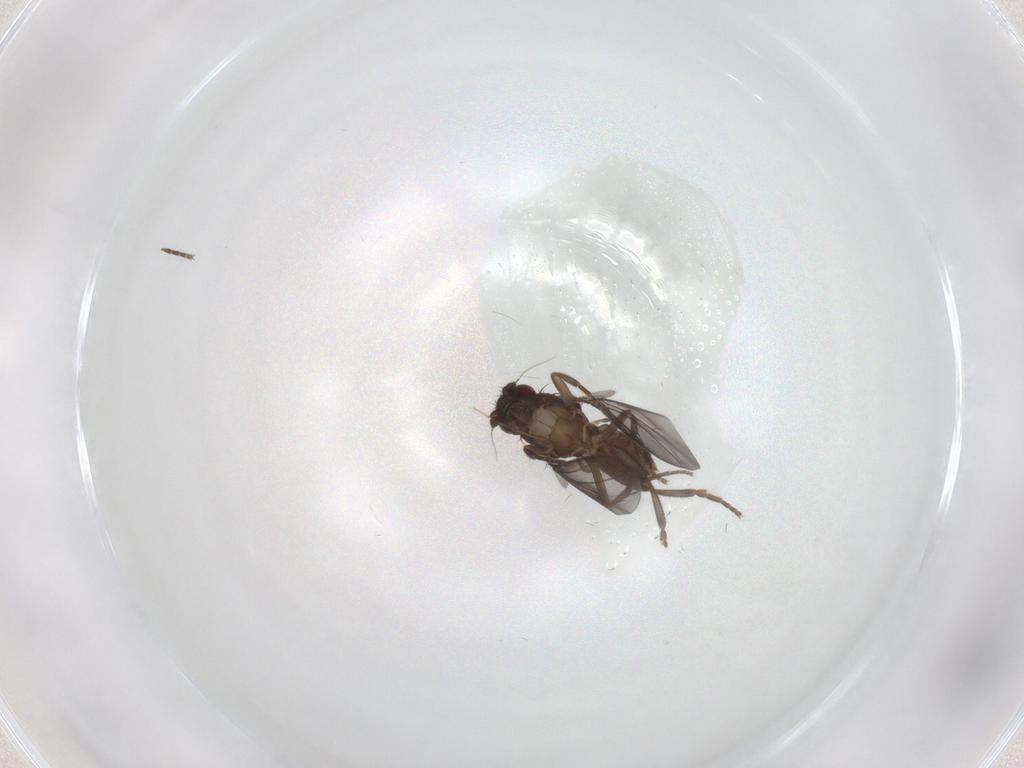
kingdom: Animalia
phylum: Arthropoda
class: Insecta
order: Diptera
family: Sphaeroceridae
